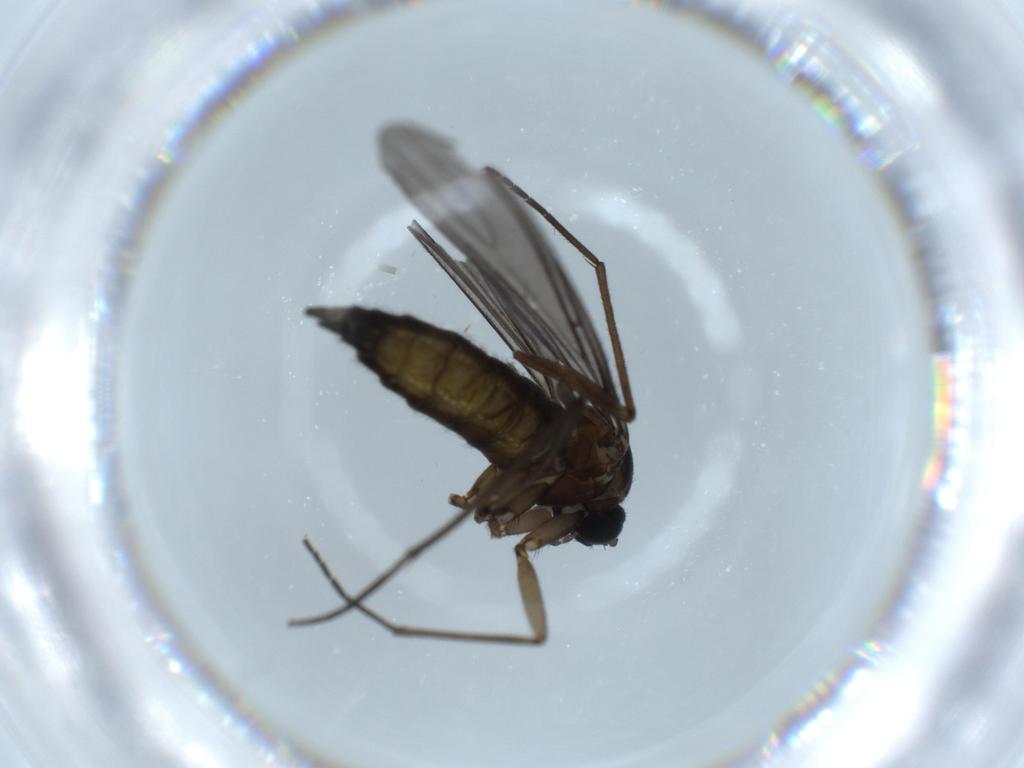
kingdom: Animalia
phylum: Arthropoda
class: Insecta
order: Diptera
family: Sciaridae
